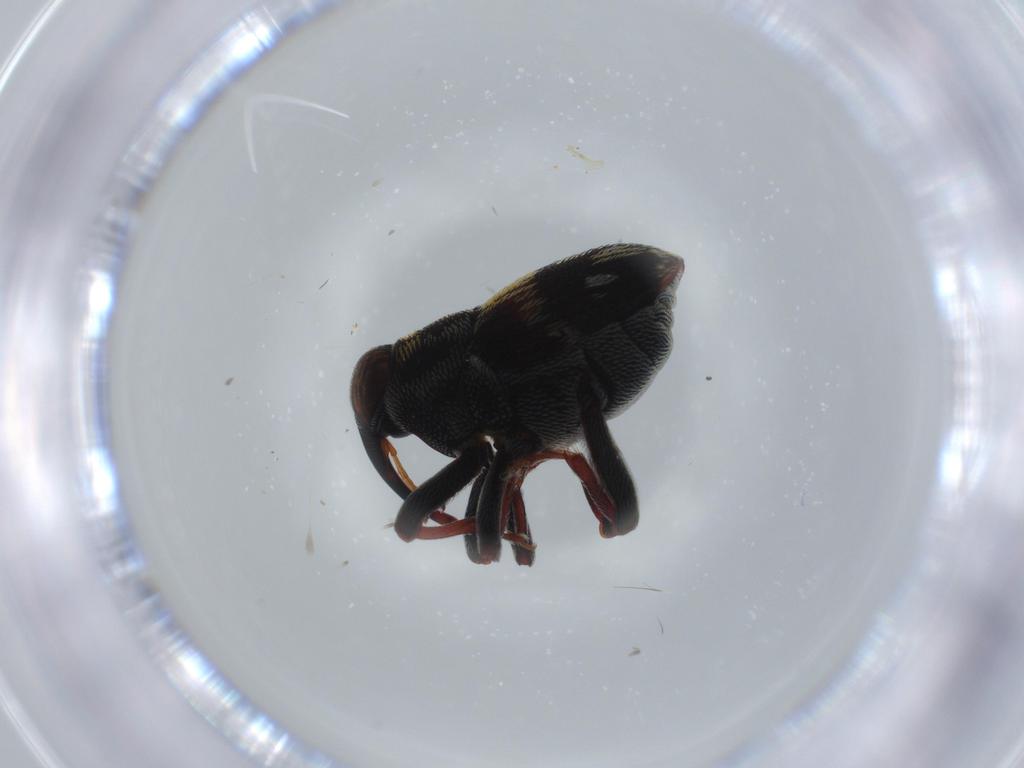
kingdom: Animalia
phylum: Arthropoda
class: Insecta
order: Coleoptera
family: Curculionidae
